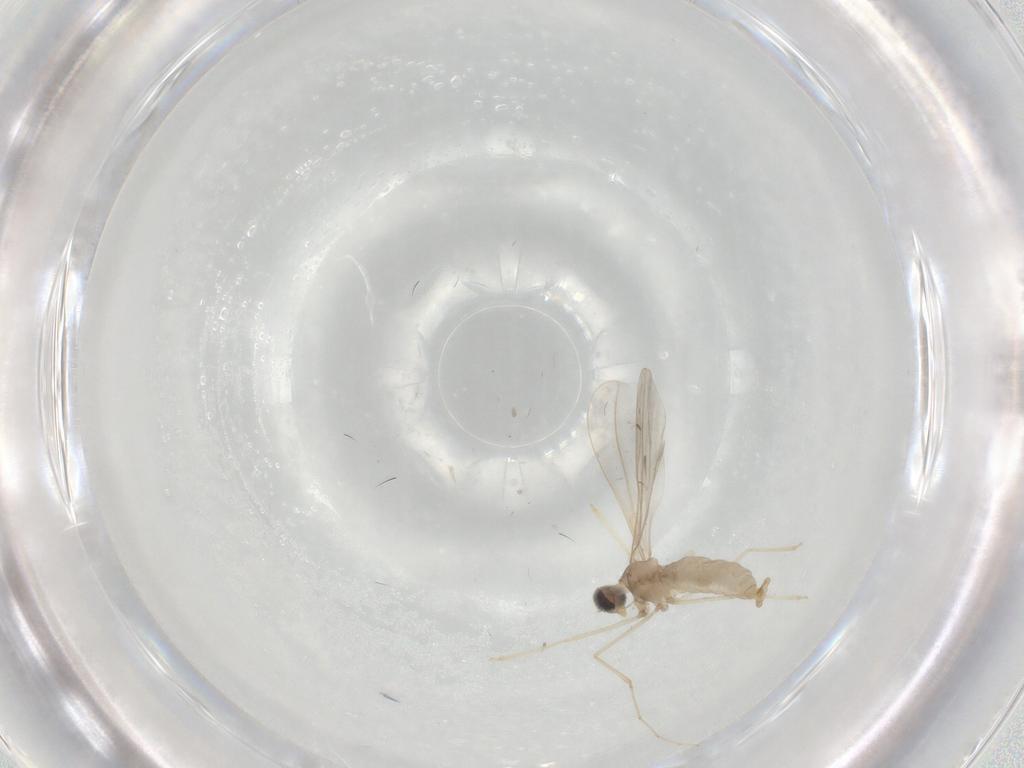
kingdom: Animalia
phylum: Arthropoda
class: Insecta
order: Diptera
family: Cecidomyiidae
